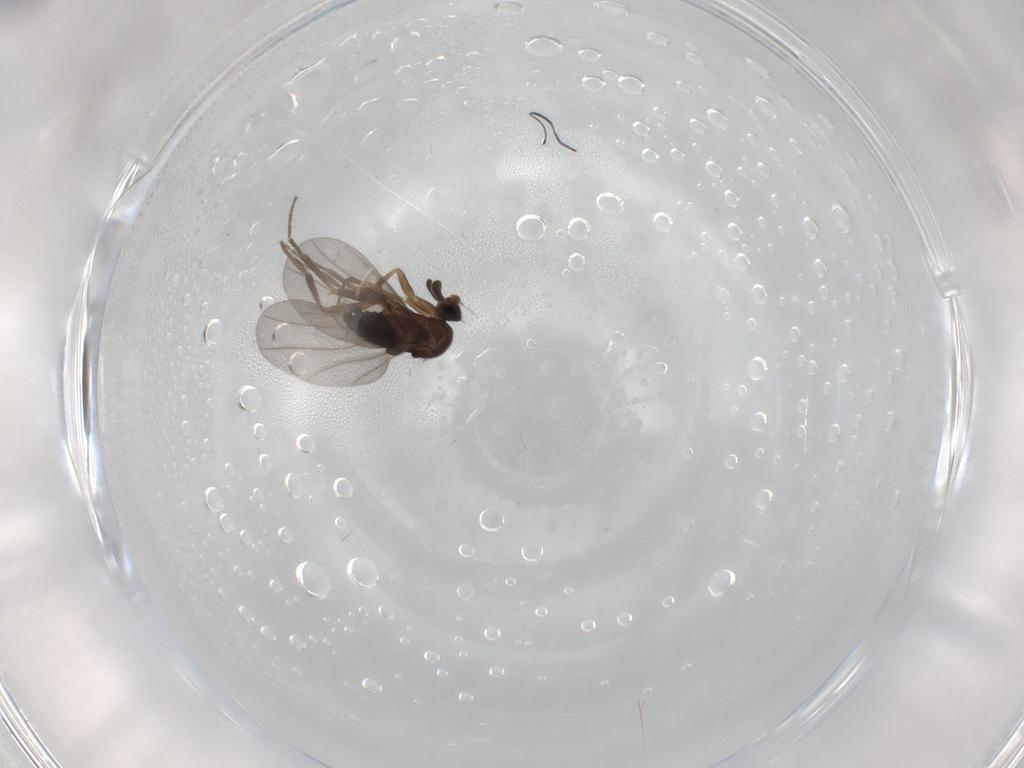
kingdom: Animalia
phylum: Arthropoda
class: Insecta
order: Diptera
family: Phoridae
